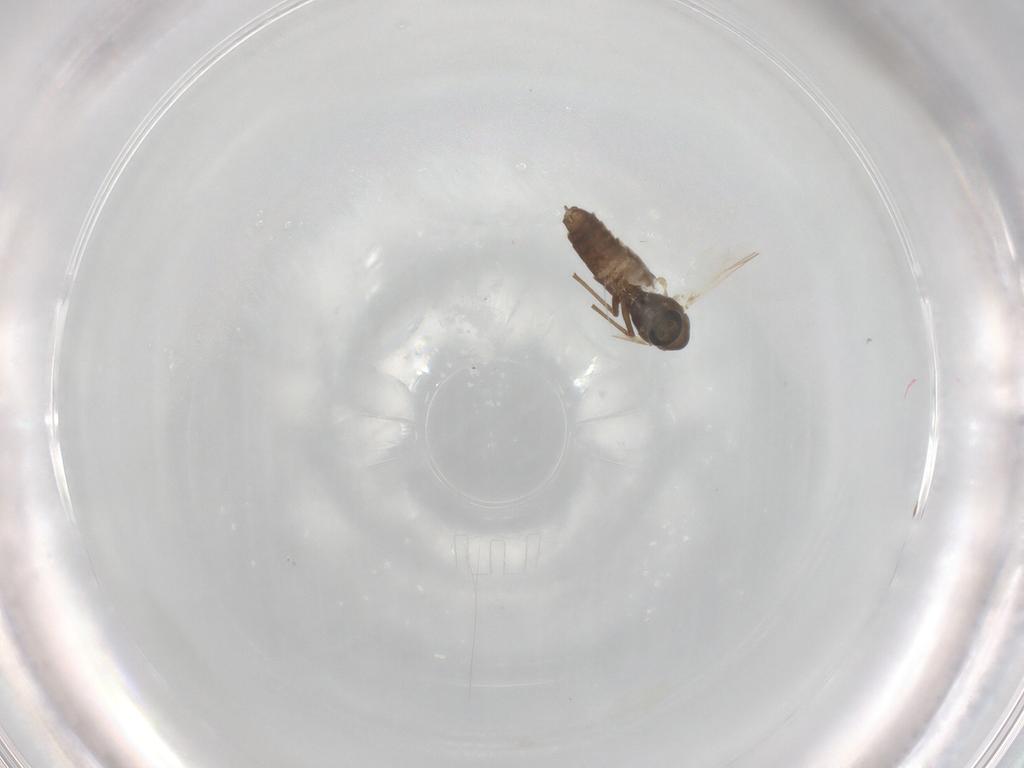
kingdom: Animalia
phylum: Arthropoda
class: Insecta
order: Diptera
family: Chironomidae
